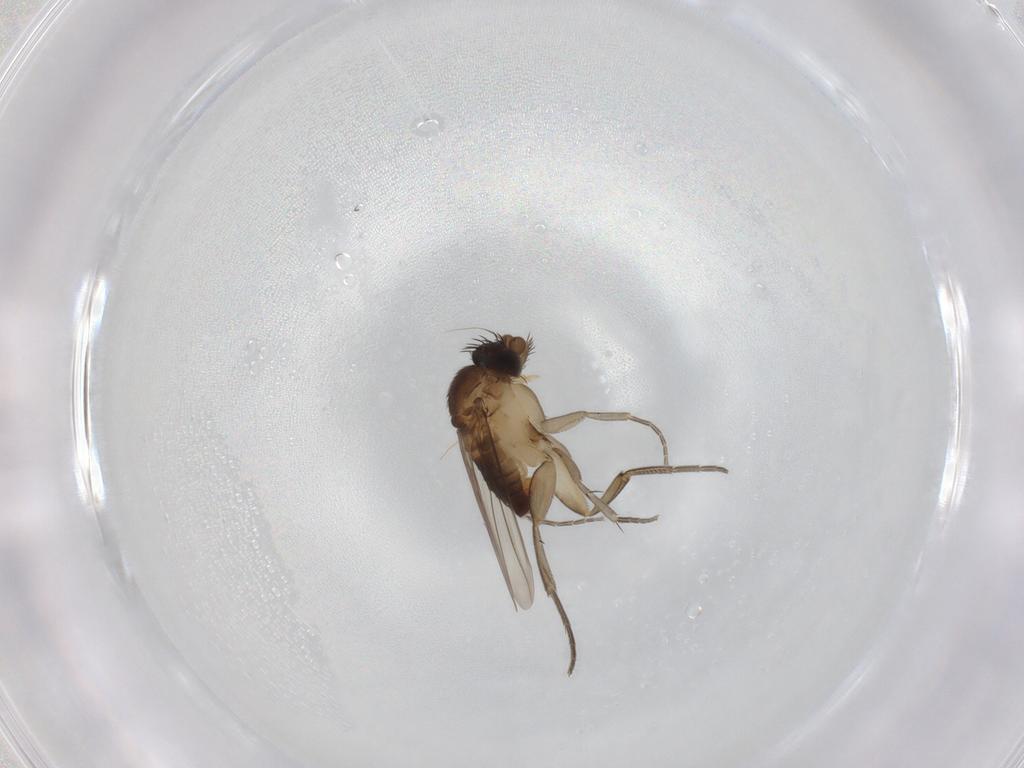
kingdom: Animalia
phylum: Arthropoda
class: Insecta
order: Diptera
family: Phoridae
